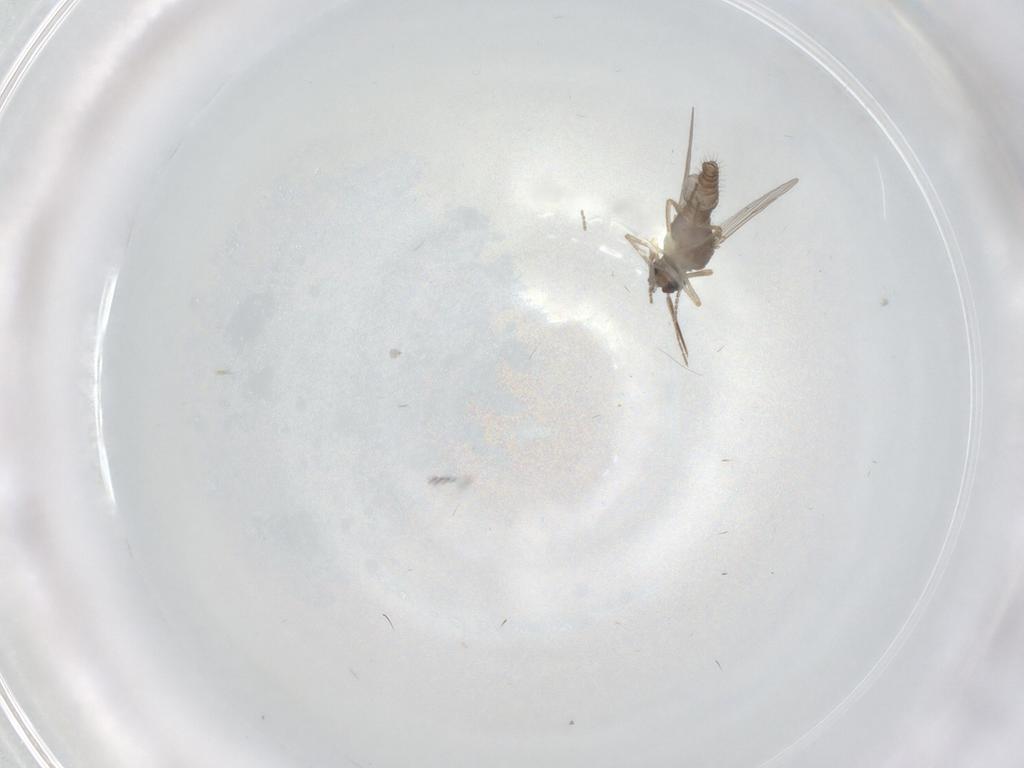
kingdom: Animalia
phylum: Arthropoda
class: Insecta
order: Diptera
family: Ceratopogonidae
